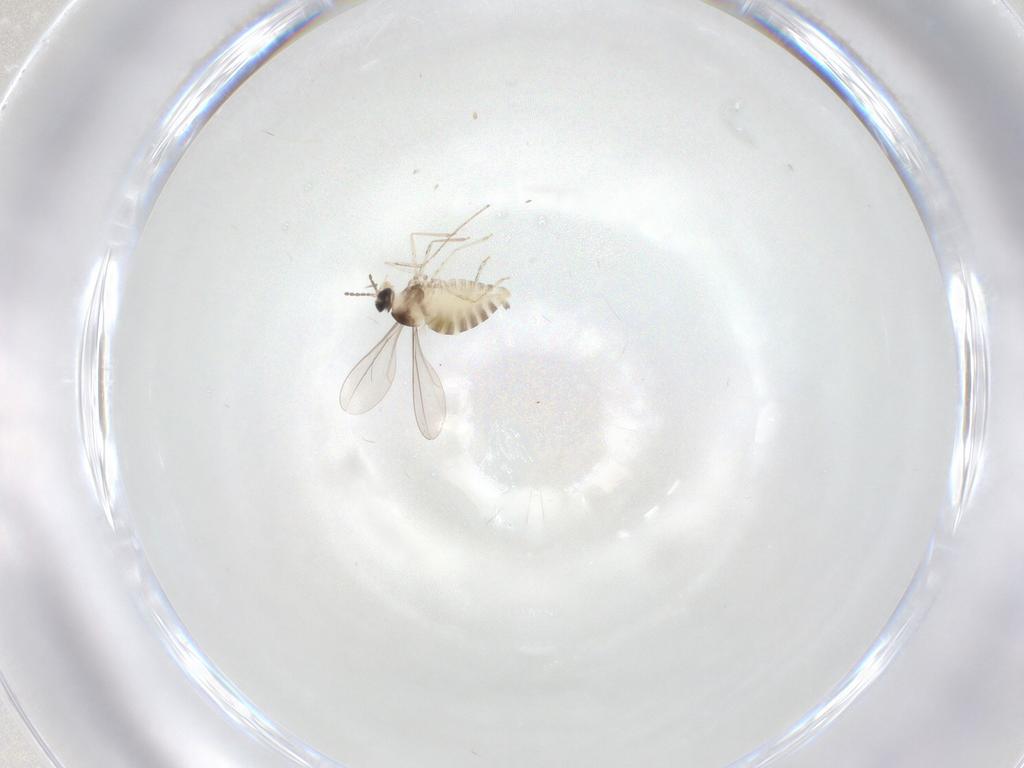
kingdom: Animalia
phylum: Arthropoda
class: Insecta
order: Diptera
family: Cecidomyiidae
